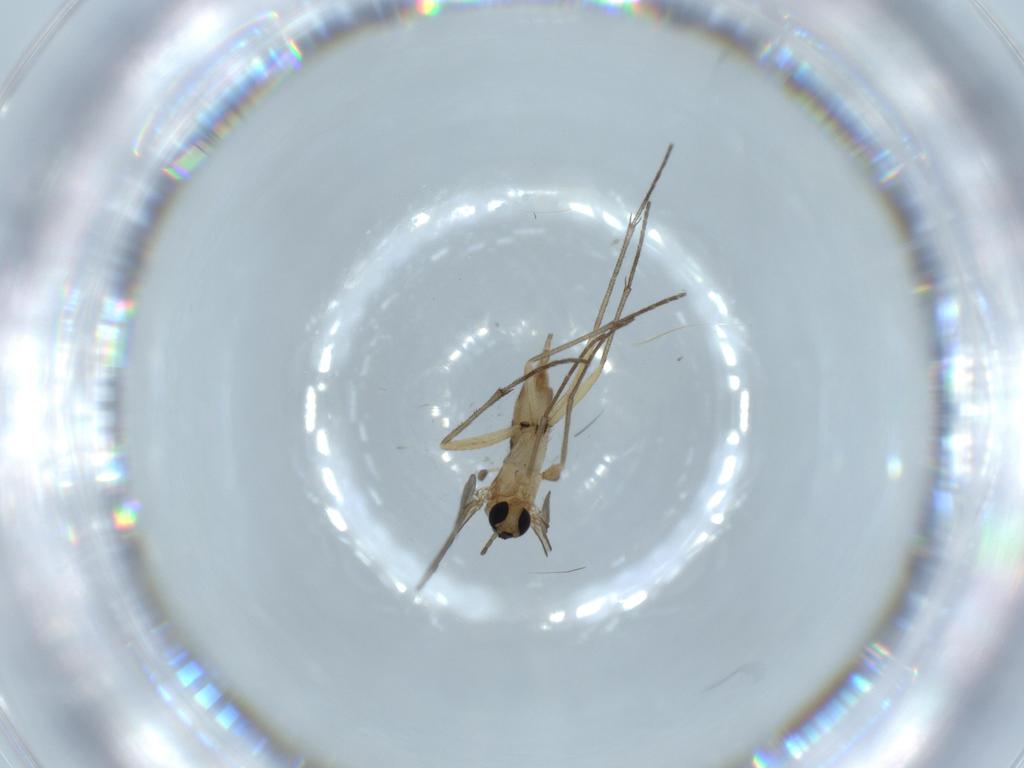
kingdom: Animalia
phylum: Arthropoda
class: Insecta
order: Diptera
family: Sciaridae
